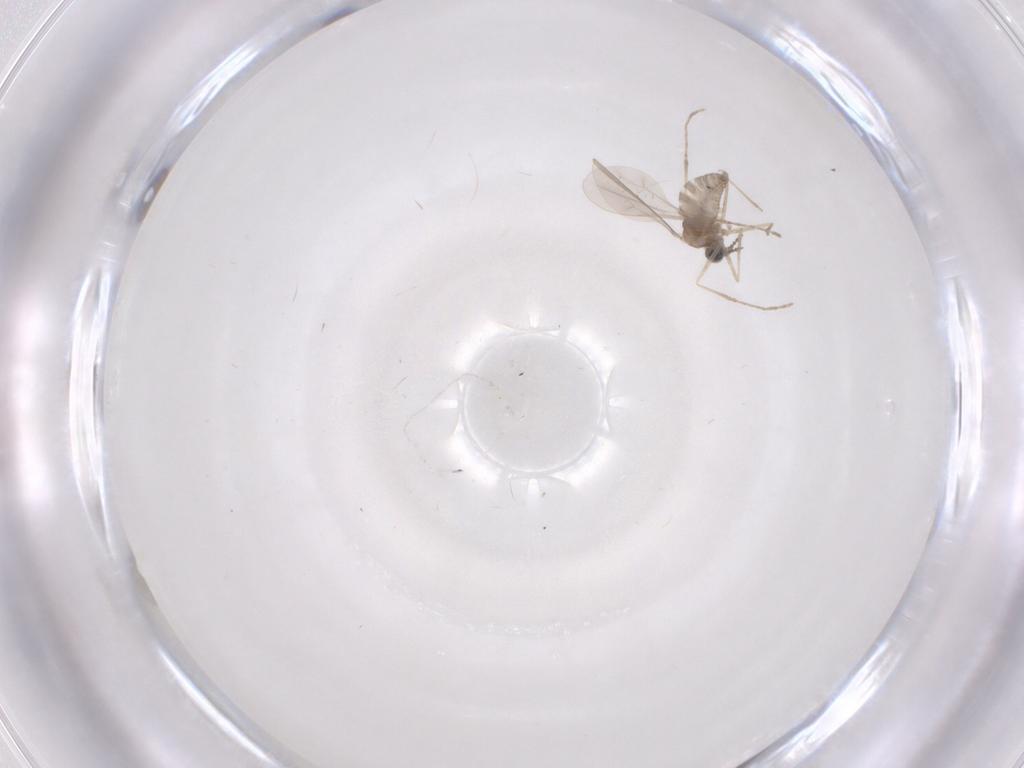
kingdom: Animalia
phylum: Arthropoda
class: Insecta
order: Diptera
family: Cecidomyiidae
